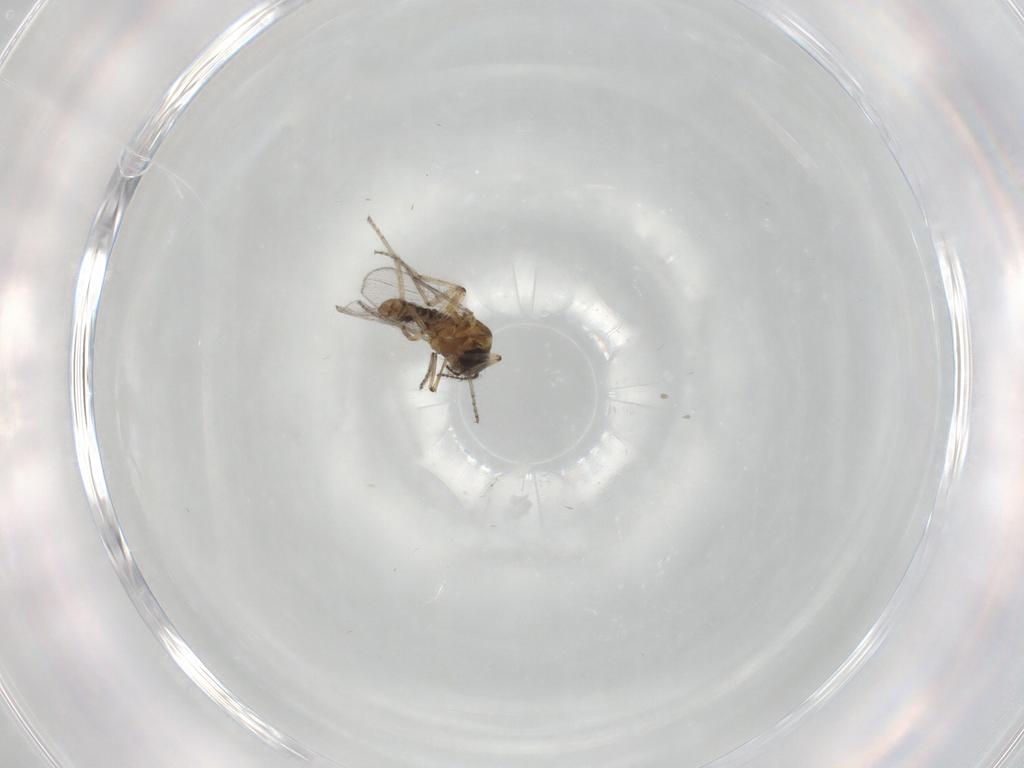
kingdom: Animalia
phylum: Arthropoda
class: Insecta
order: Diptera
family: Ceratopogonidae
